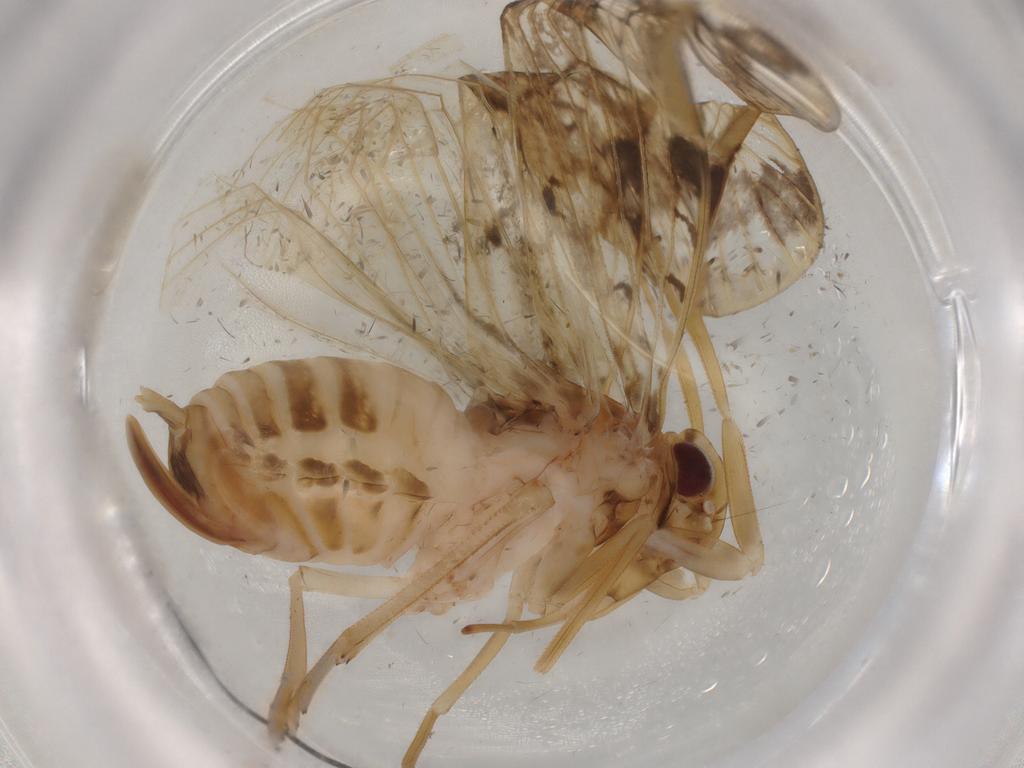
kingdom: Animalia
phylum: Arthropoda
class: Insecta
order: Hemiptera
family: Cixiidae
